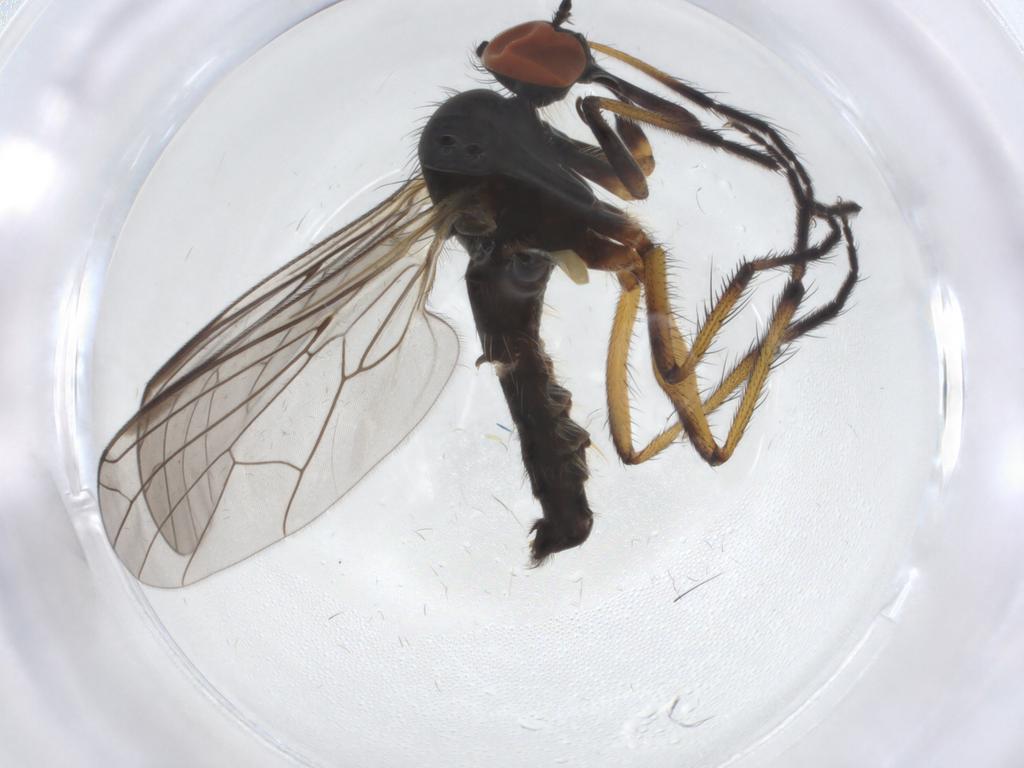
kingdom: Animalia
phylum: Arthropoda
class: Insecta
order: Diptera
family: Empididae
